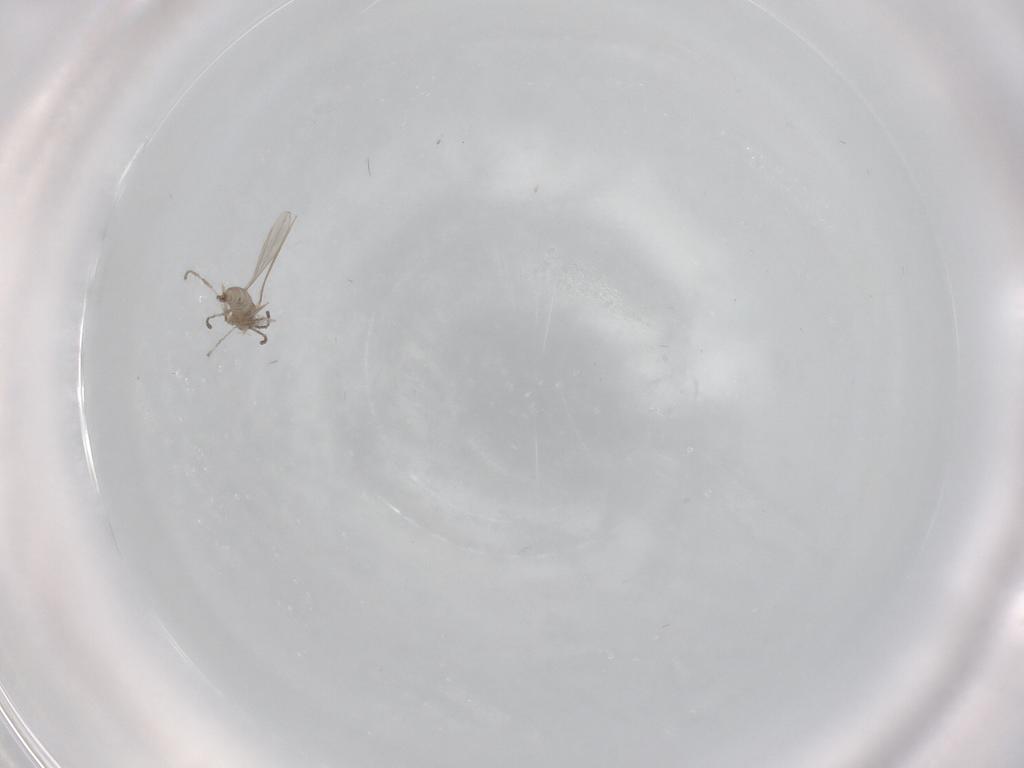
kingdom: Animalia
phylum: Arthropoda
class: Insecta
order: Diptera
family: Cecidomyiidae
